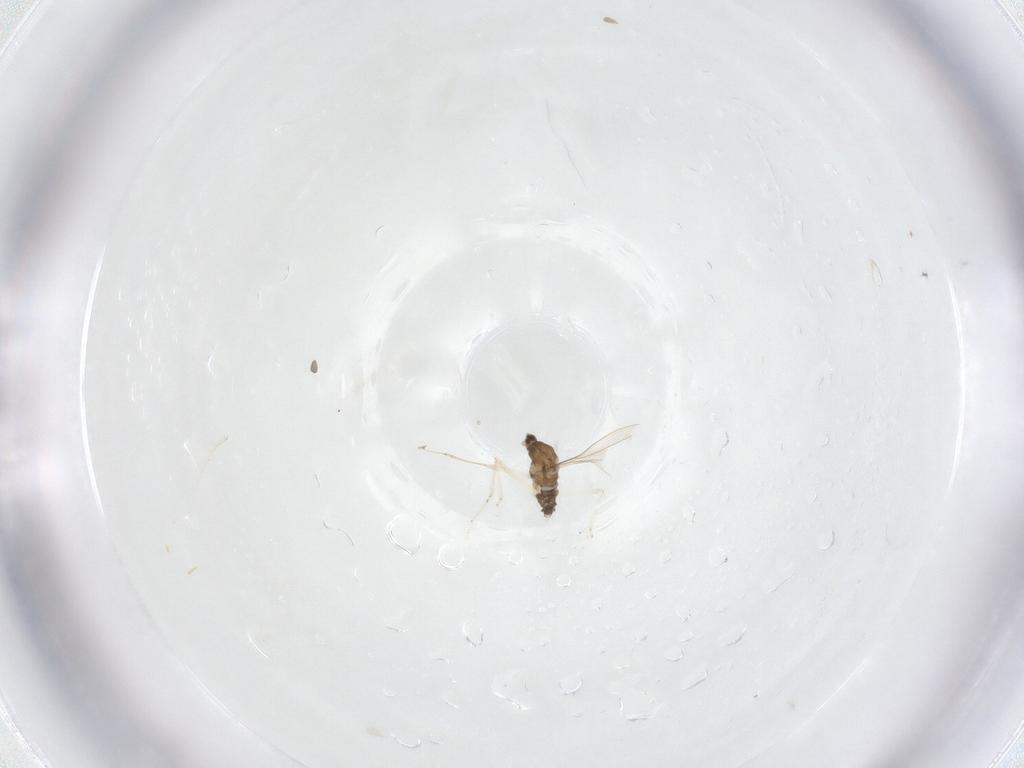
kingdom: Animalia
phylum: Arthropoda
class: Insecta
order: Diptera
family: Cecidomyiidae
